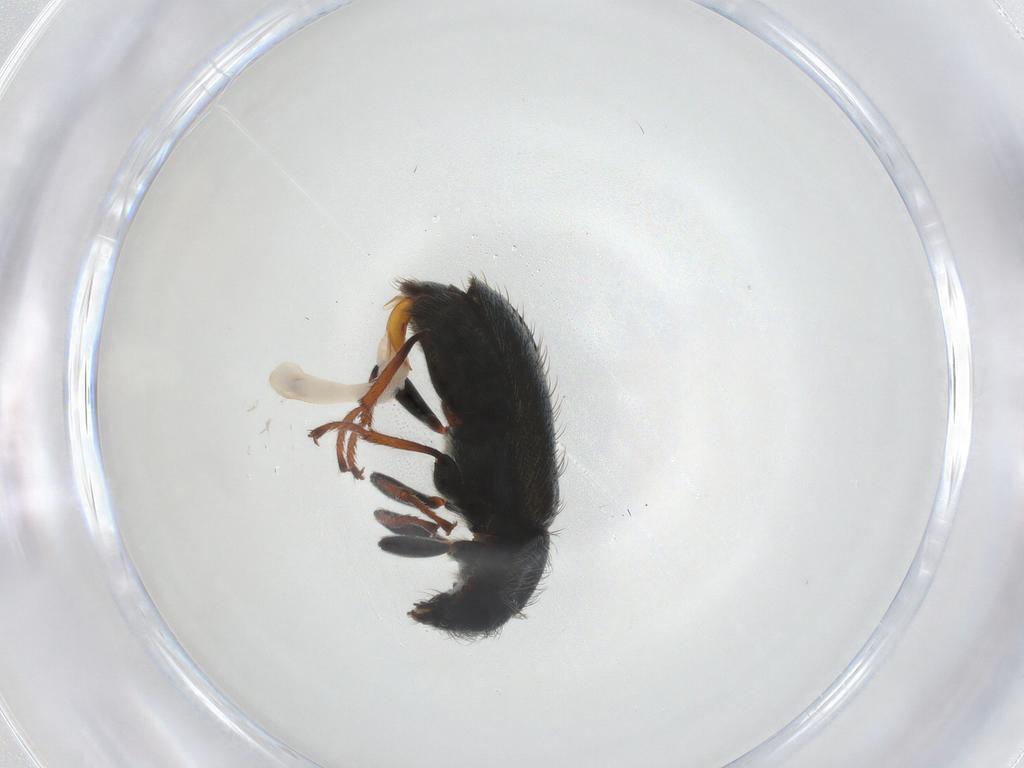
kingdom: Animalia
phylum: Arthropoda
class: Insecta
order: Coleoptera
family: Melyridae
